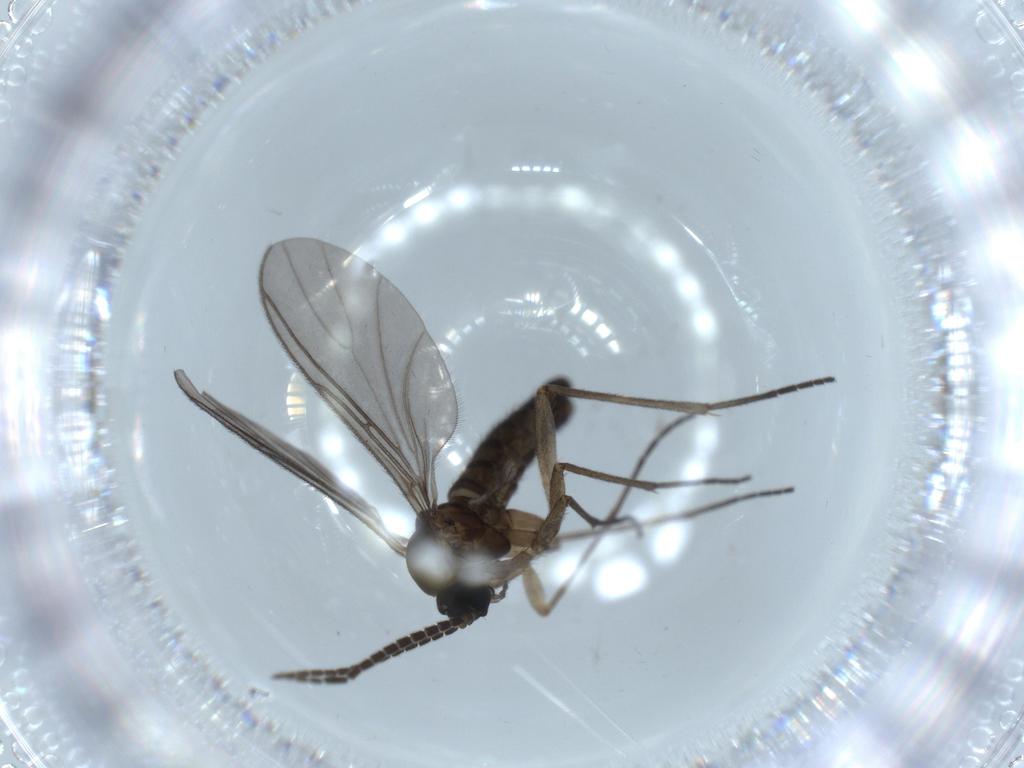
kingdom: Animalia
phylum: Arthropoda
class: Insecta
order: Diptera
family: Sciaridae
